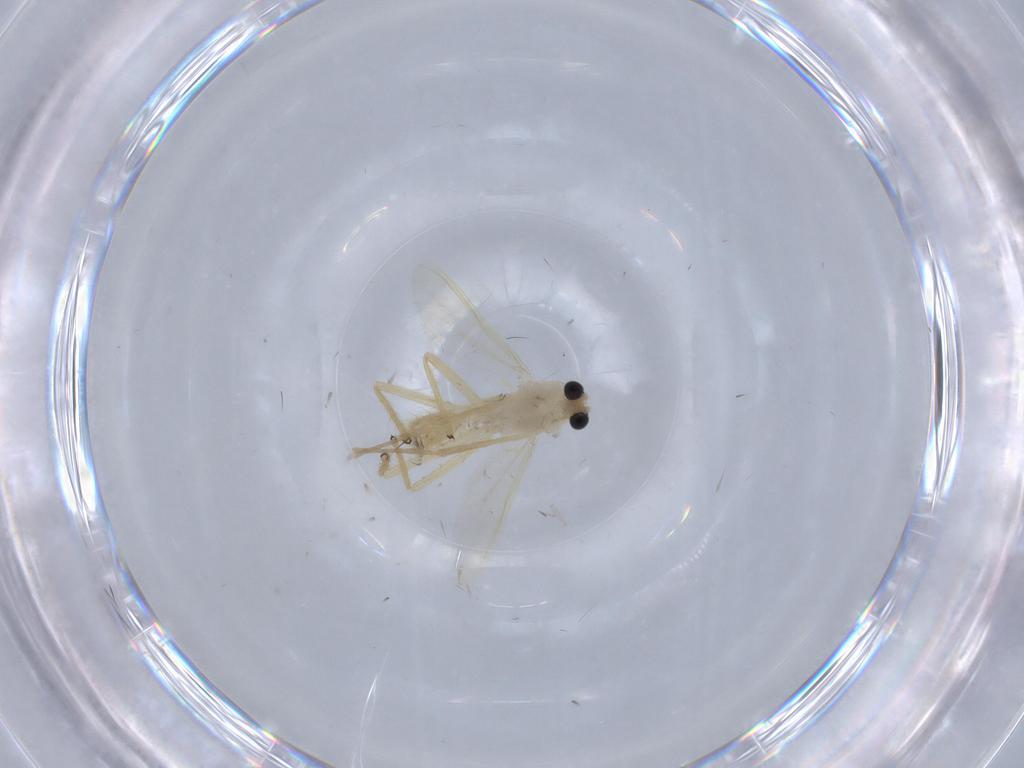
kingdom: Animalia
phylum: Arthropoda
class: Insecta
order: Diptera
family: Chironomidae
